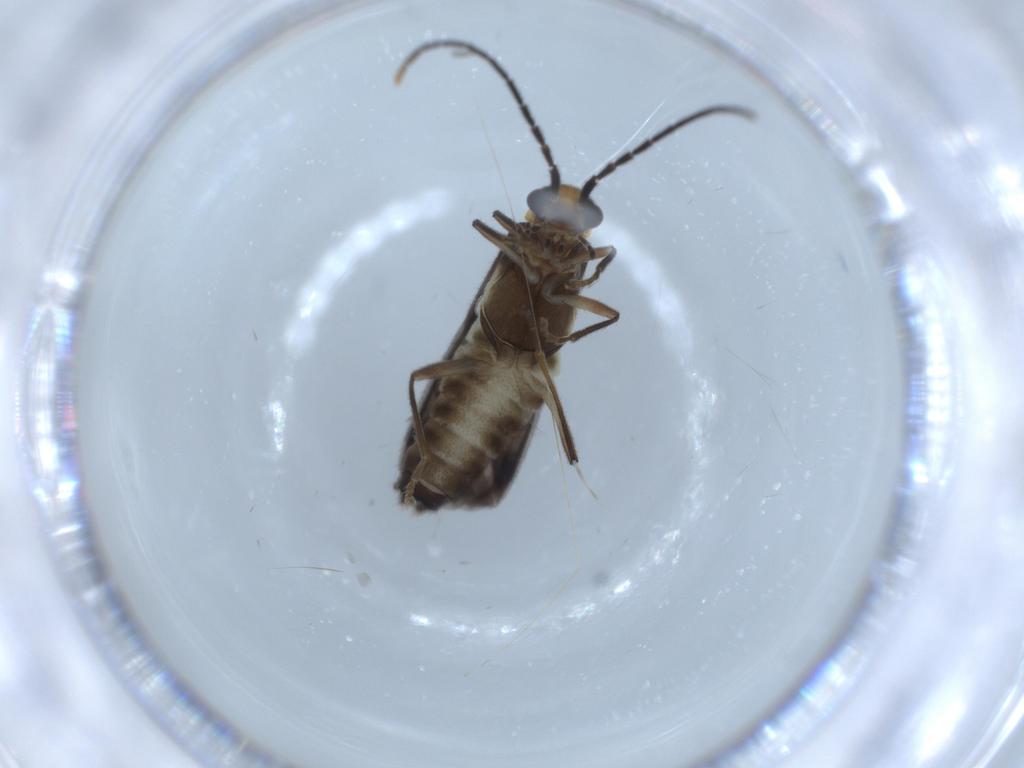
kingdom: Animalia
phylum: Arthropoda
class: Insecta
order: Coleoptera
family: Cantharidae
